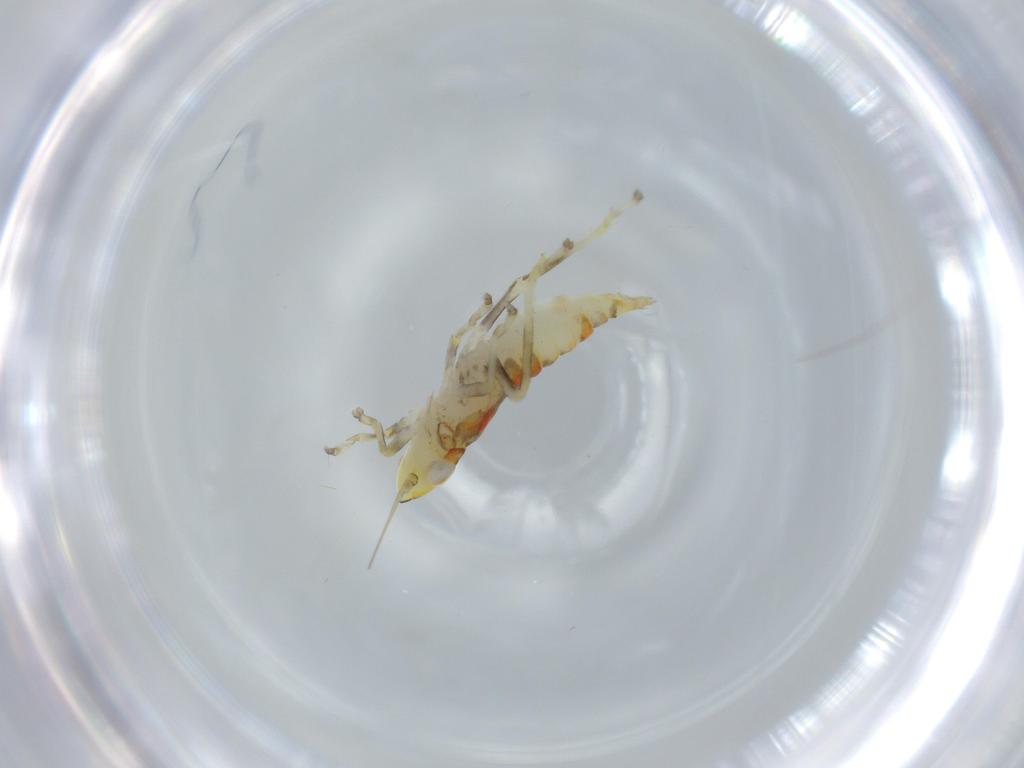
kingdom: Animalia
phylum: Arthropoda
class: Insecta
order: Hemiptera
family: Cicadellidae
